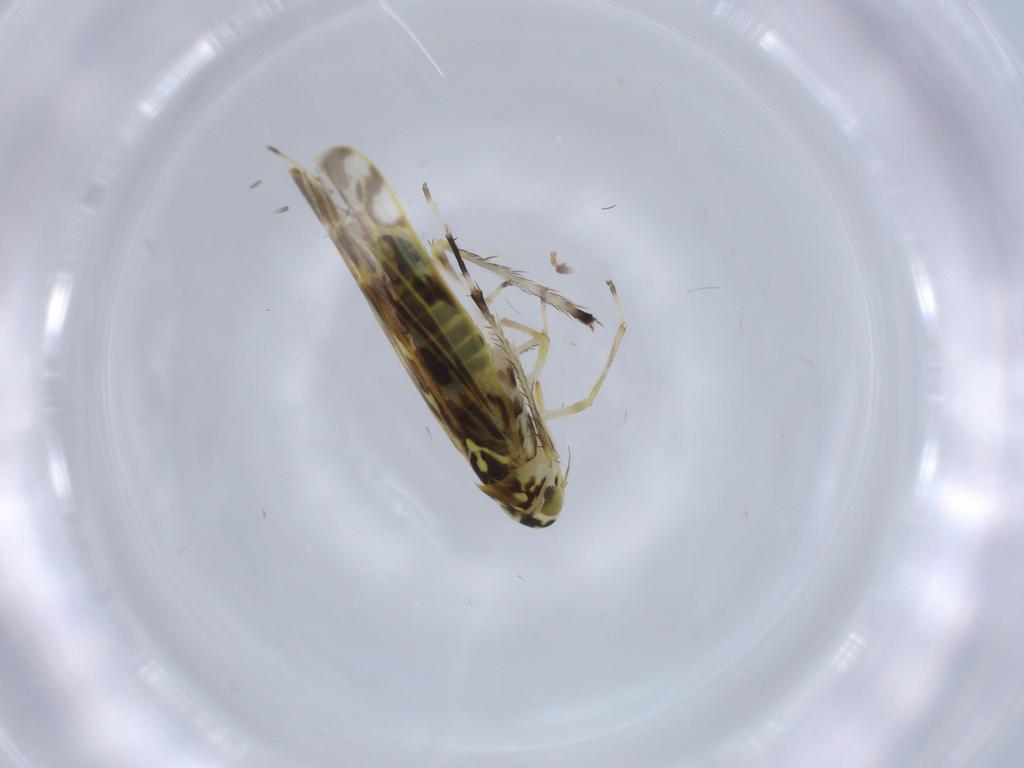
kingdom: Animalia
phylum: Arthropoda
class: Insecta
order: Hemiptera
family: Cicadellidae
